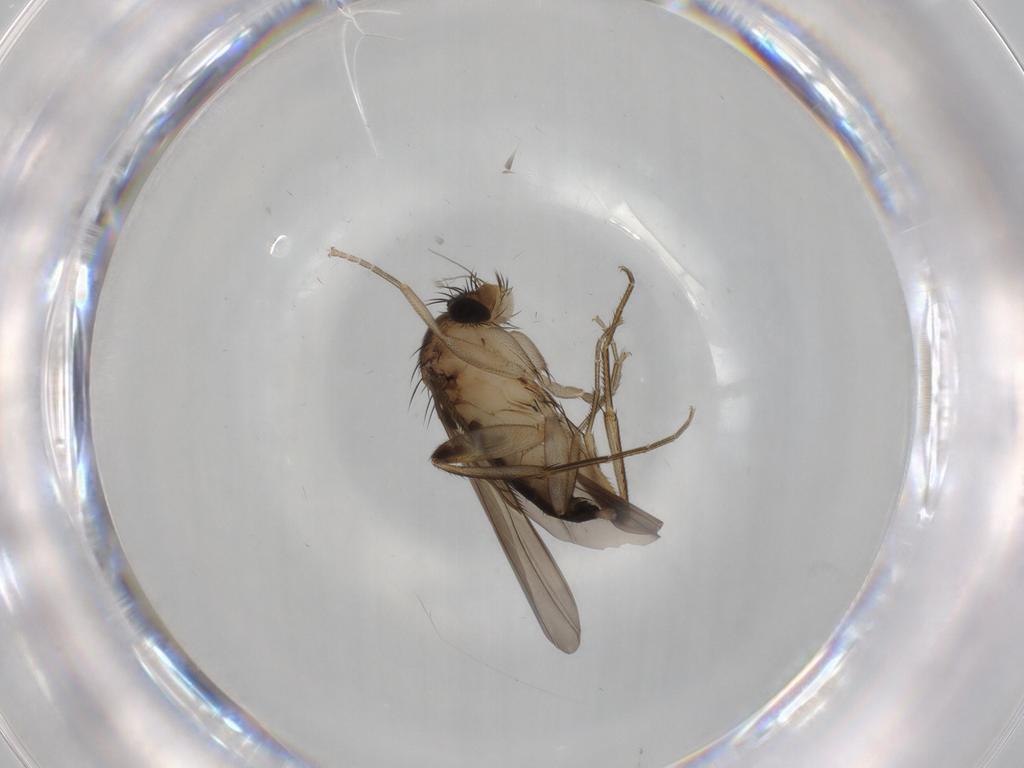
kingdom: Animalia
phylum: Arthropoda
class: Insecta
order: Diptera
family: Phoridae
